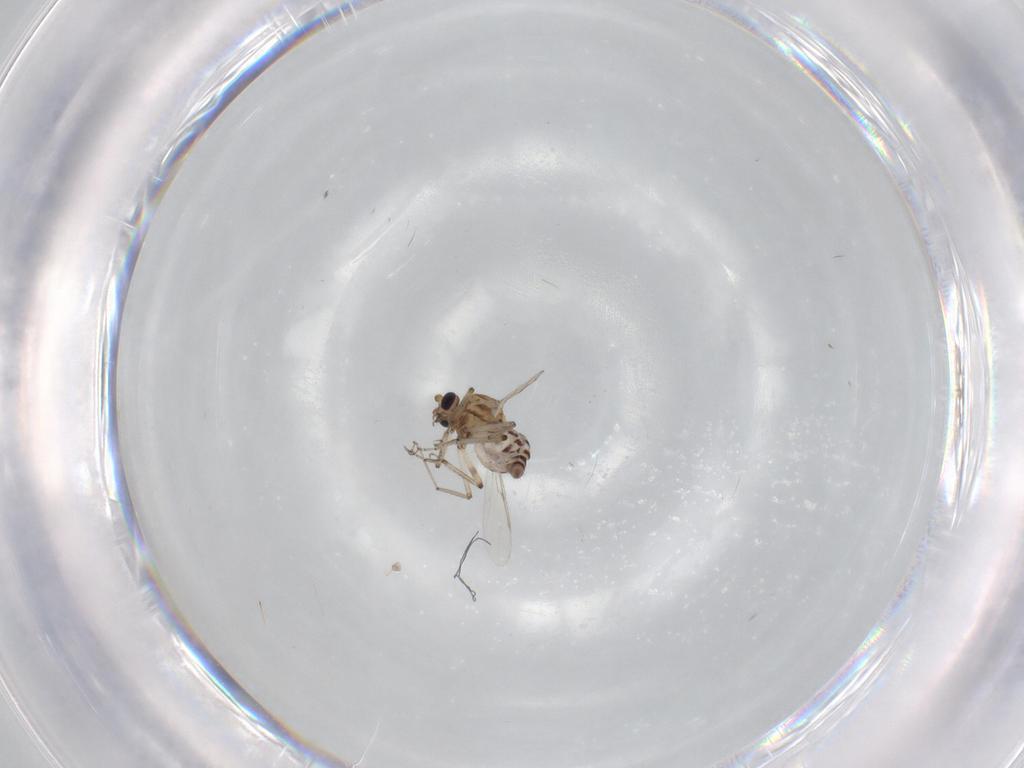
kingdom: Animalia
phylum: Arthropoda
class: Insecta
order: Diptera
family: Ceratopogonidae
